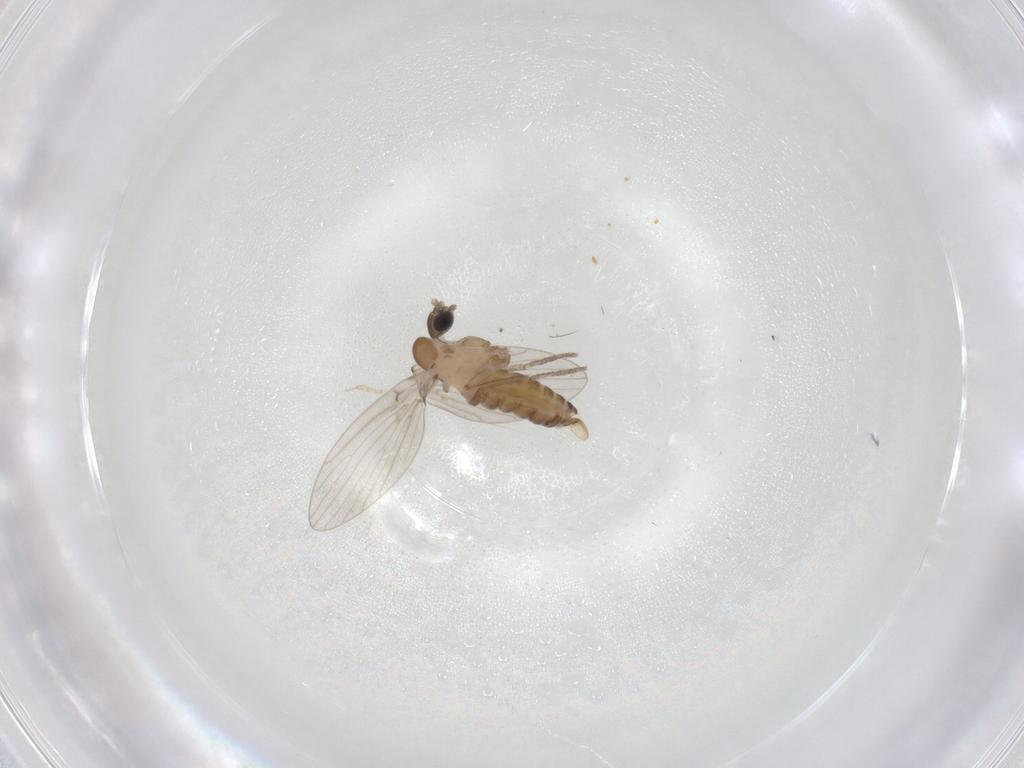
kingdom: Animalia
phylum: Arthropoda
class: Insecta
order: Diptera
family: Psychodidae
